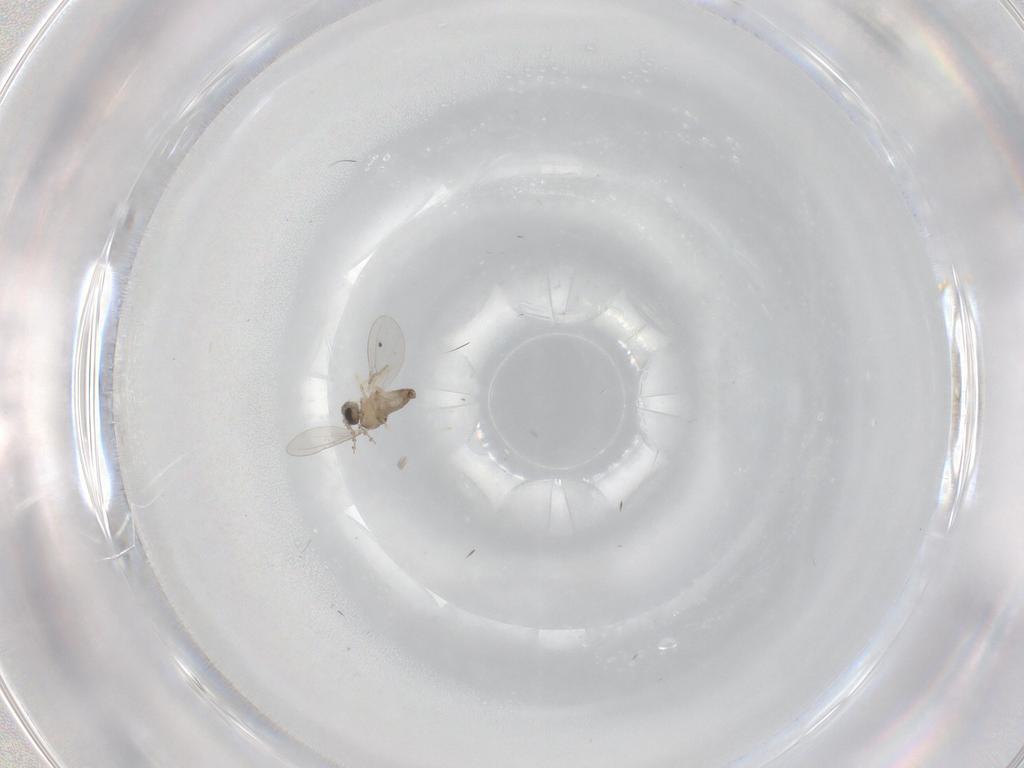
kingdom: Animalia
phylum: Arthropoda
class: Insecta
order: Diptera
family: Cecidomyiidae
